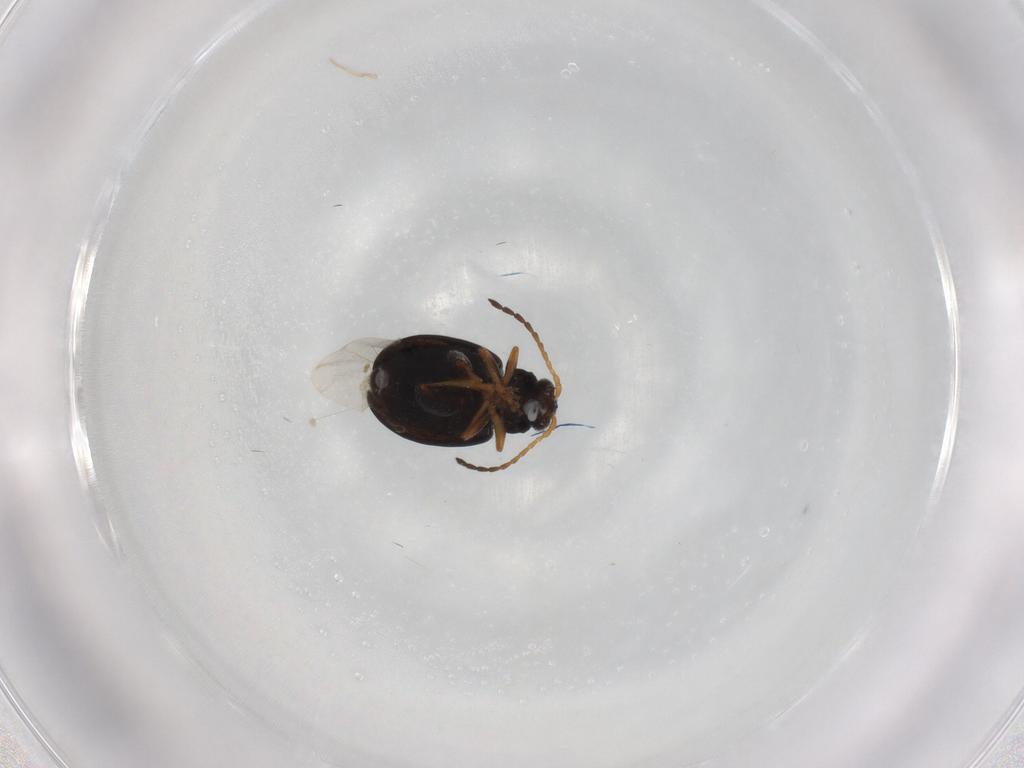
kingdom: Animalia
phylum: Arthropoda
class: Insecta
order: Coleoptera
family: Chrysomelidae
